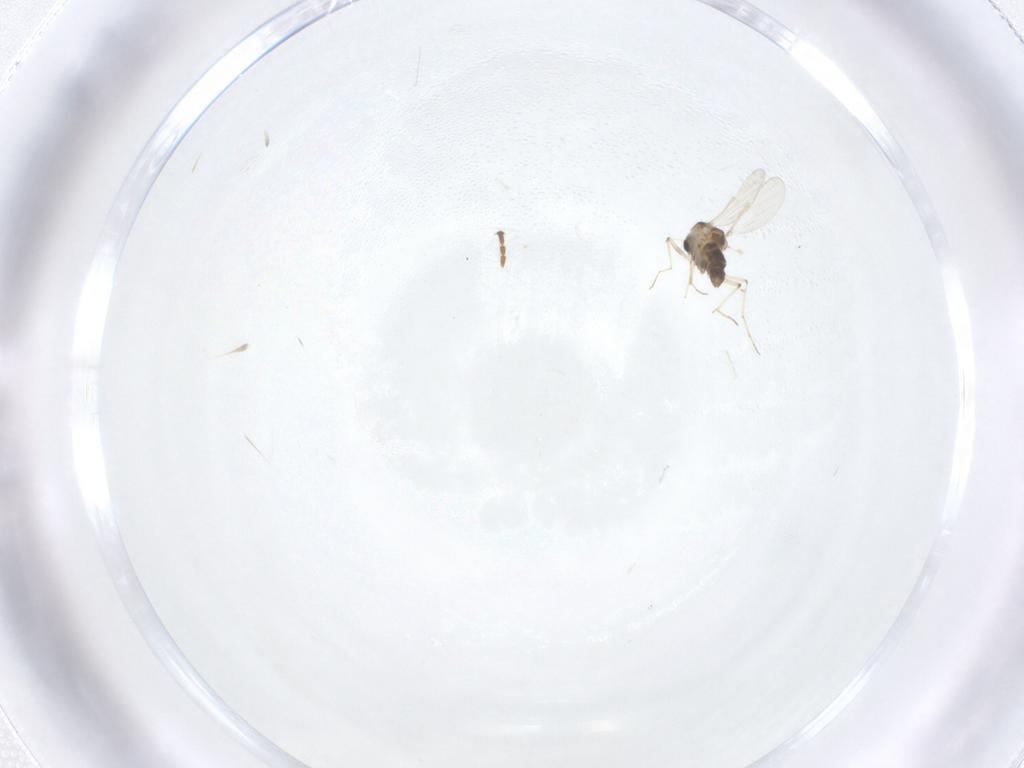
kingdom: Animalia
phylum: Arthropoda
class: Insecta
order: Diptera
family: Chironomidae
